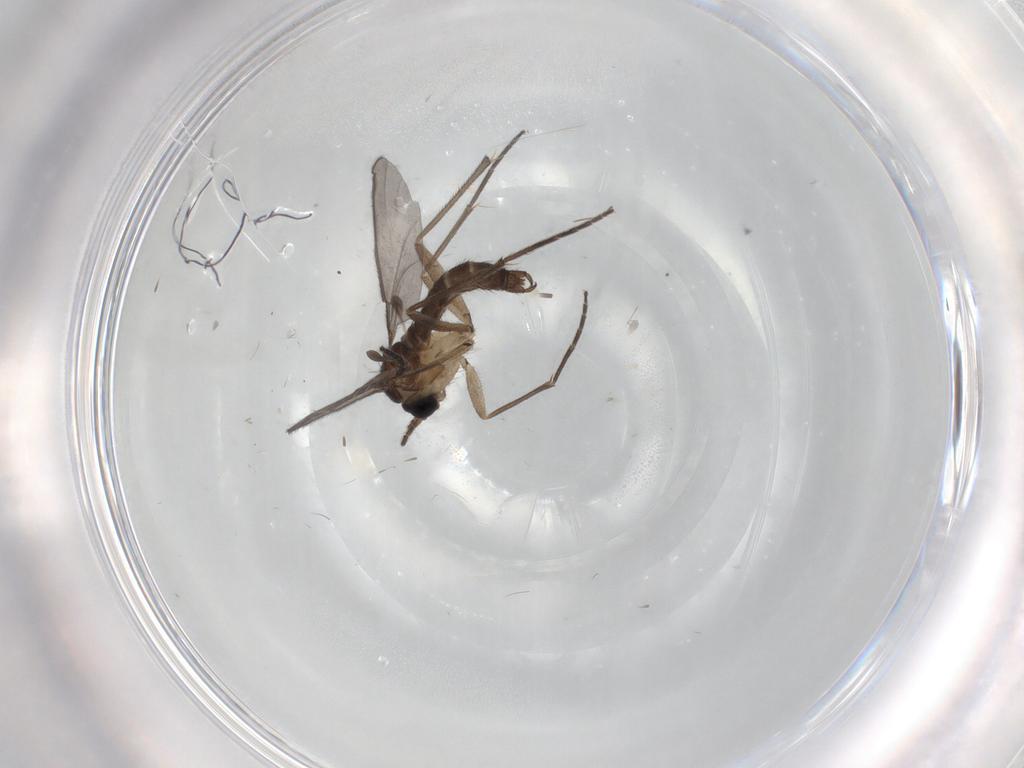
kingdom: Animalia
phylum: Arthropoda
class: Insecta
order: Diptera
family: Sciaridae
